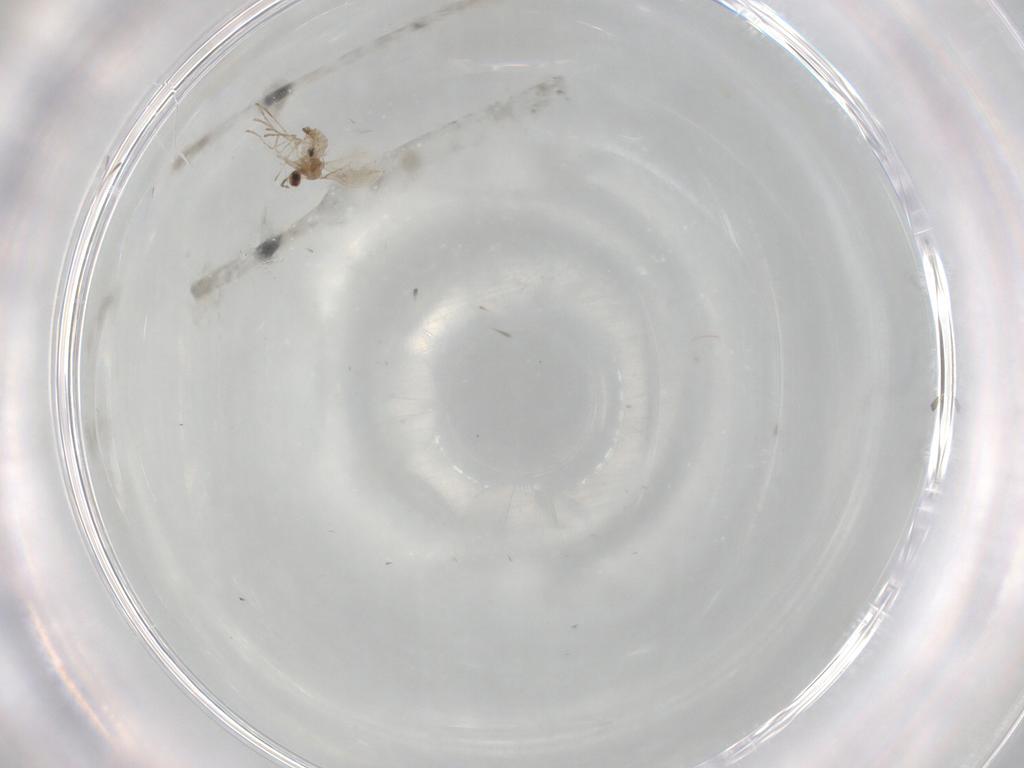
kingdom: Animalia
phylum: Arthropoda
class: Insecta
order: Diptera
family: Cecidomyiidae
